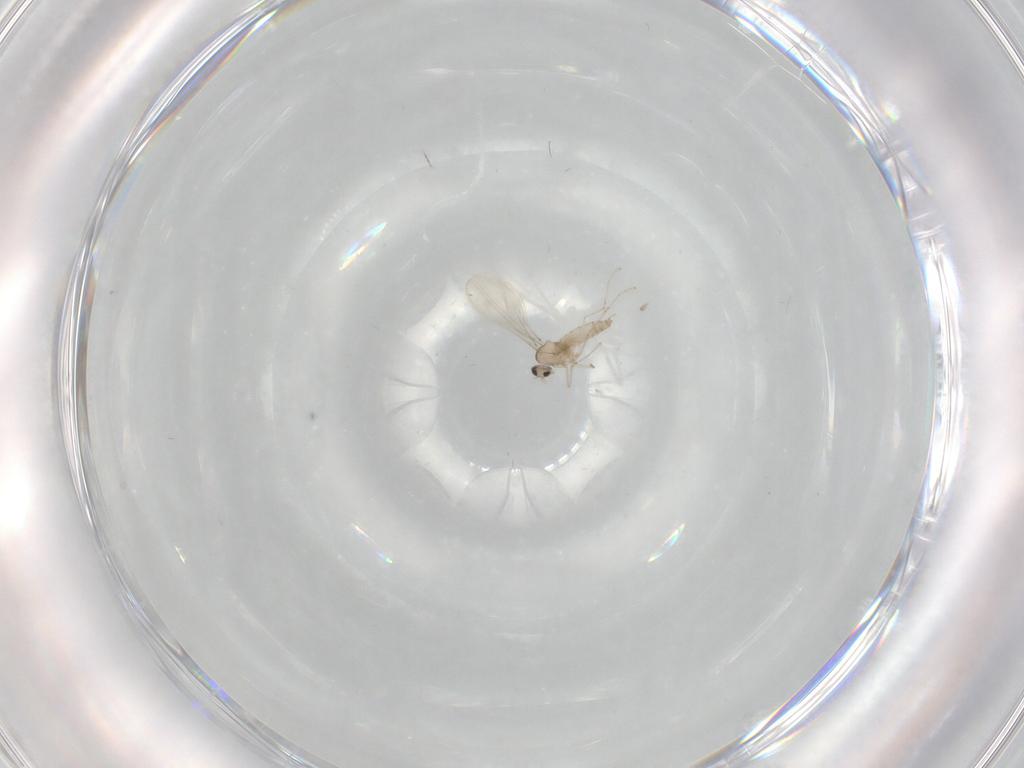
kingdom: Animalia
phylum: Arthropoda
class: Insecta
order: Diptera
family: Cecidomyiidae
